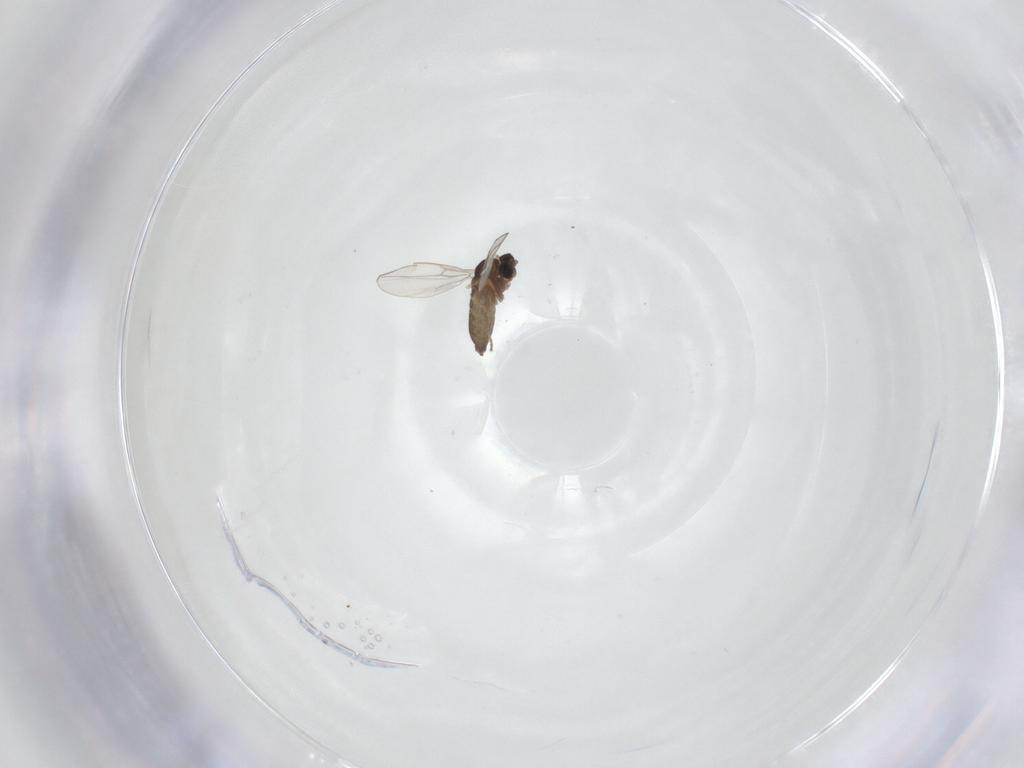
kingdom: Animalia
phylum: Arthropoda
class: Insecta
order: Diptera
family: Cecidomyiidae
